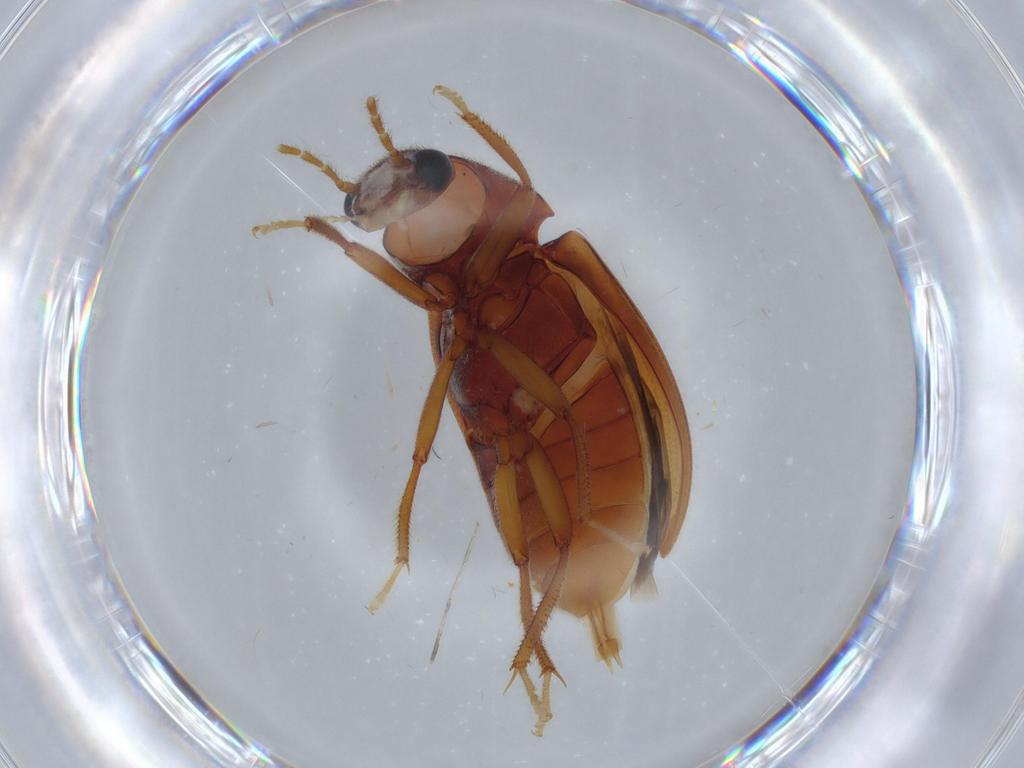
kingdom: Animalia
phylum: Arthropoda
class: Insecta
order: Coleoptera
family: Ptilodactylidae
